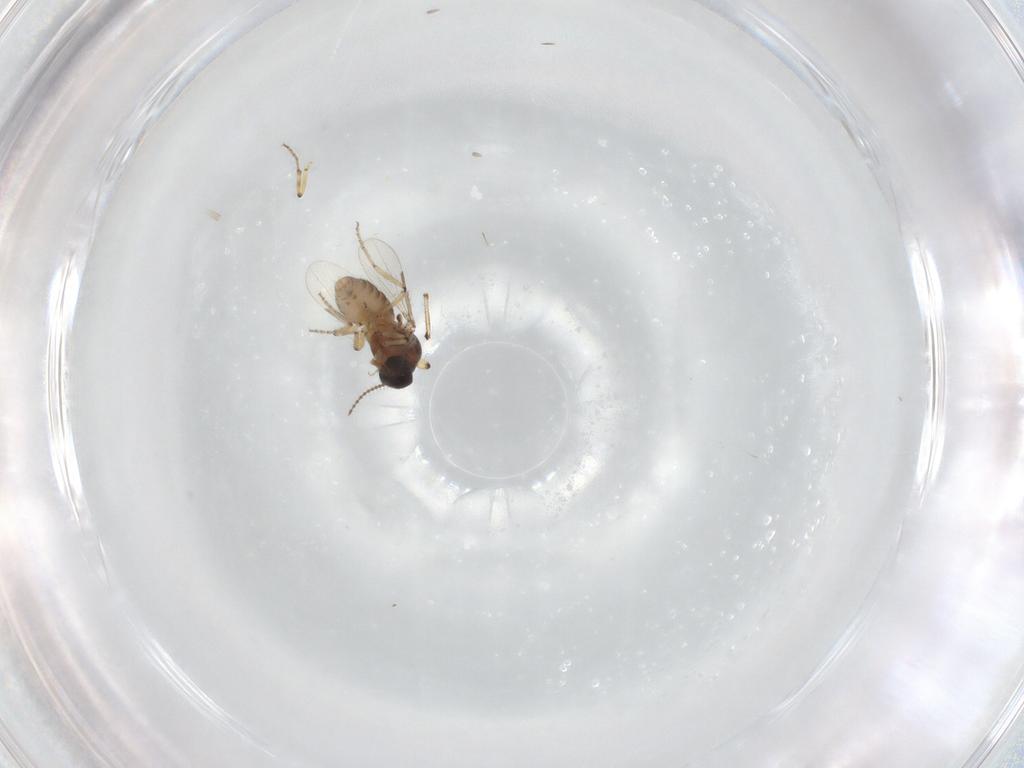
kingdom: Animalia
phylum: Arthropoda
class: Insecta
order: Diptera
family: Ceratopogonidae
